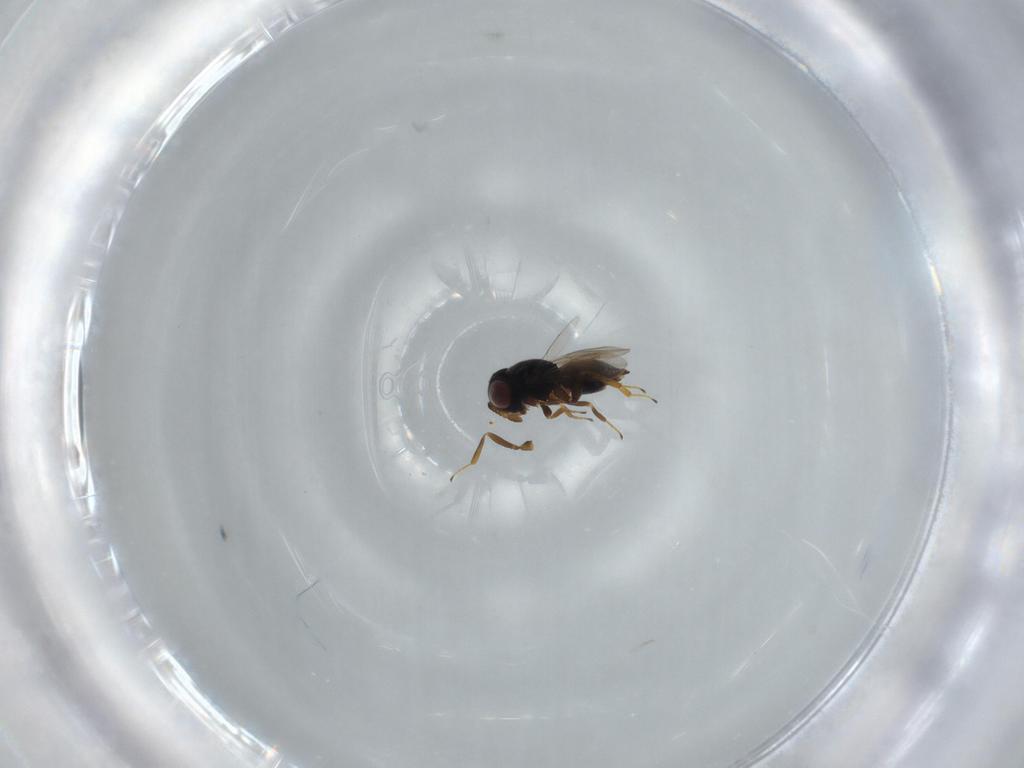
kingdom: Animalia
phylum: Arthropoda
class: Insecta
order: Hymenoptera
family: Eunotidae
